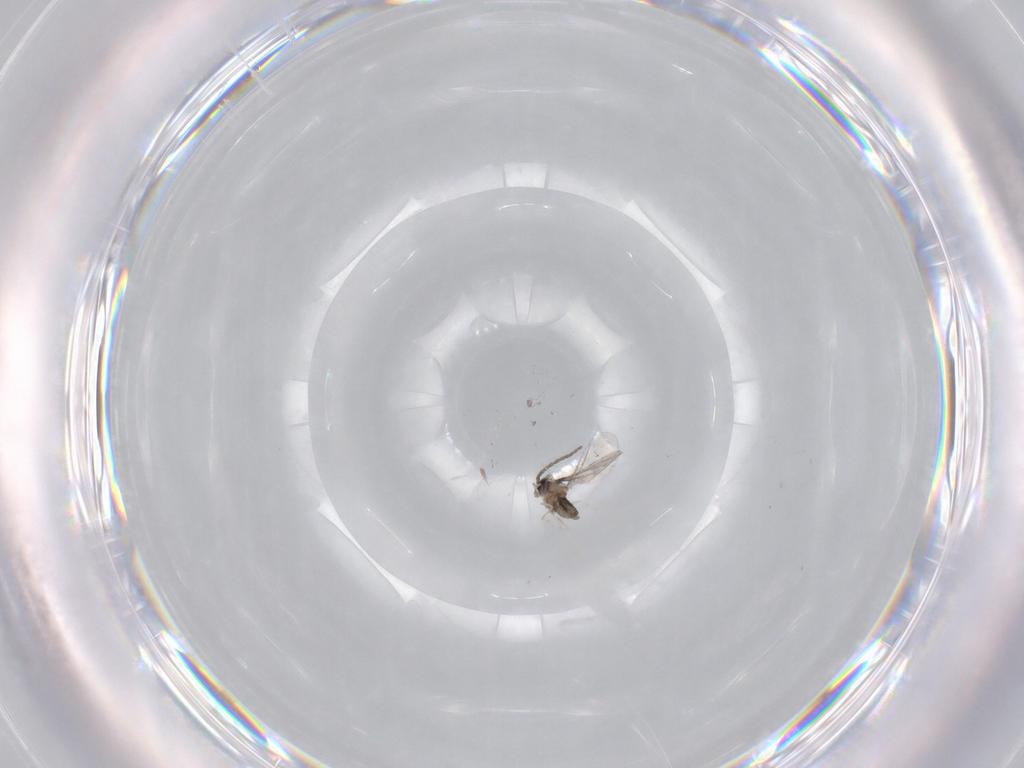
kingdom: Animalia
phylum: Arthropoda
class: Insecta
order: Diptera
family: Cecidomyiidae
